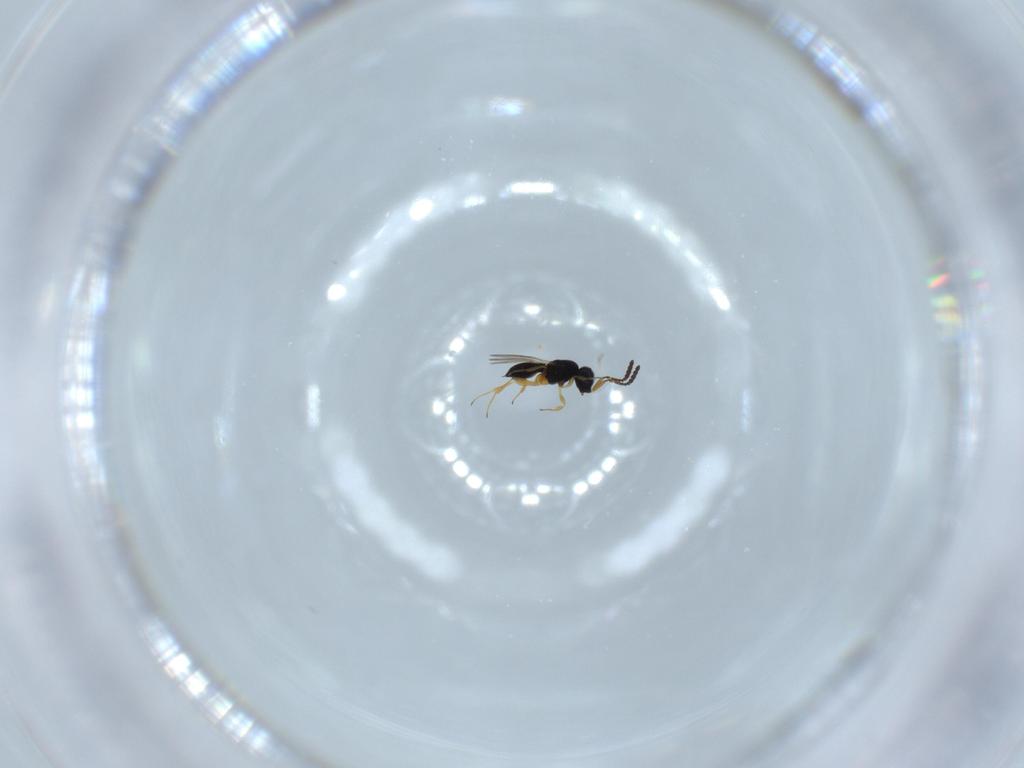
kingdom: Animalia
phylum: Arthropoda
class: Insecta
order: Hymenoptera
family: Scelionidae
